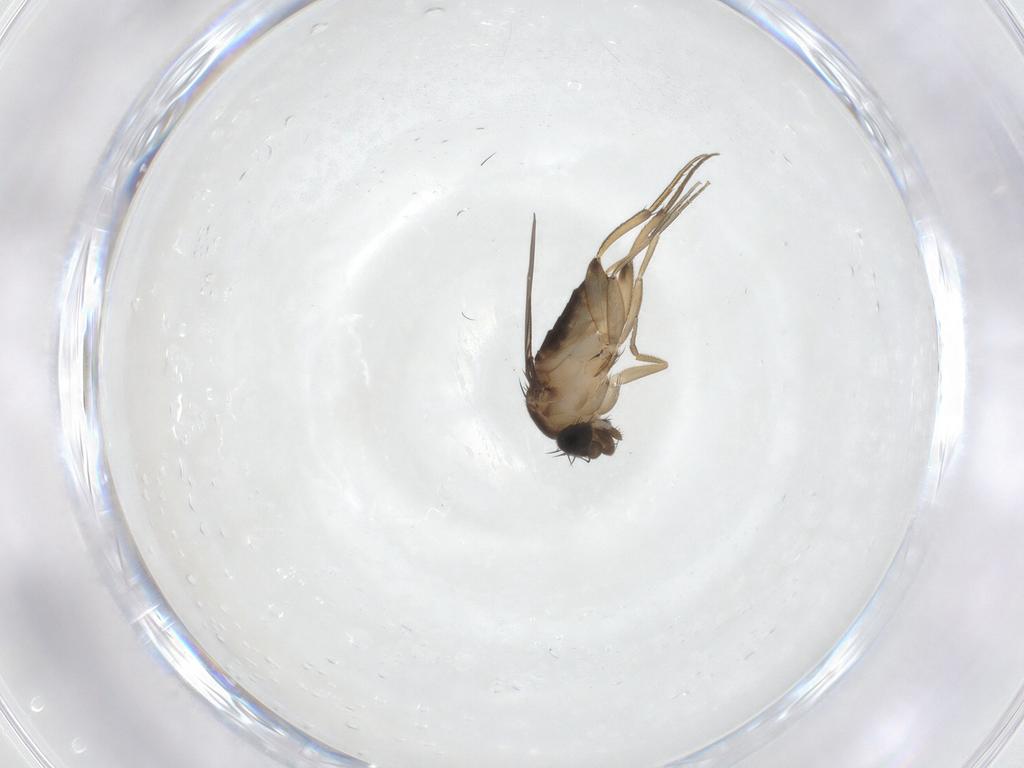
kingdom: Animalia
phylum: Arthropoda
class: Insecta
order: Diptera
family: Phoridae
